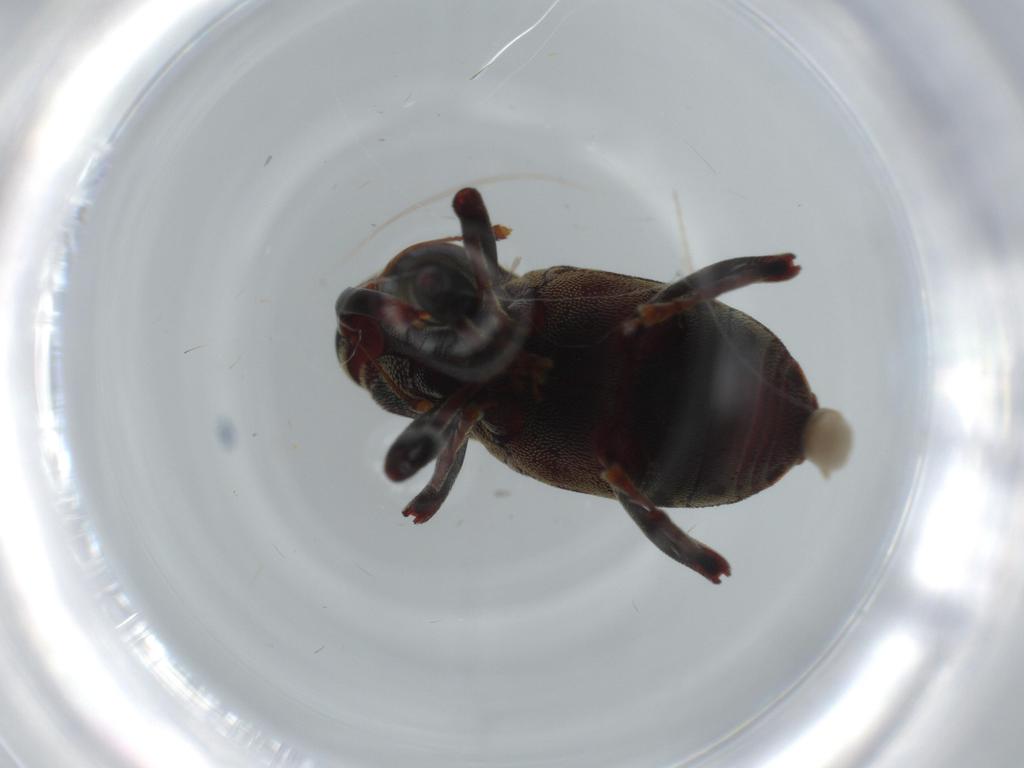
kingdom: Animalia
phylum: Arthropoda
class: Insecta
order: Coleoptera
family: Curculionidae
